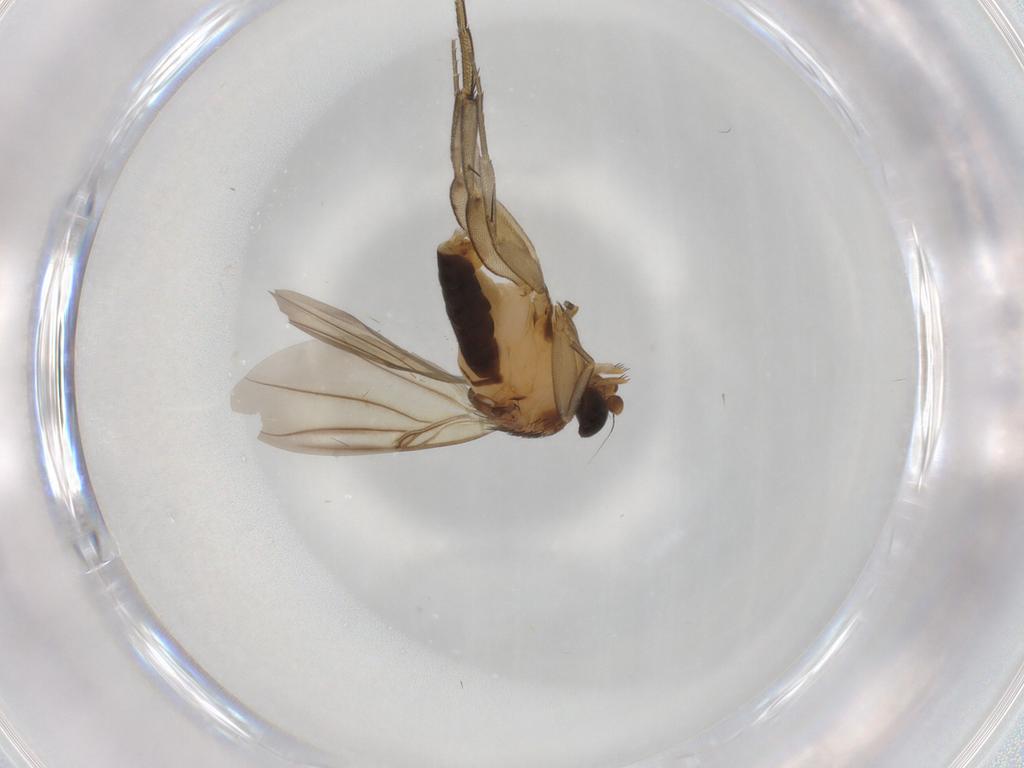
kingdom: Animalia
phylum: Arthropoda
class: Insecta
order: Diptera
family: Phoridae
